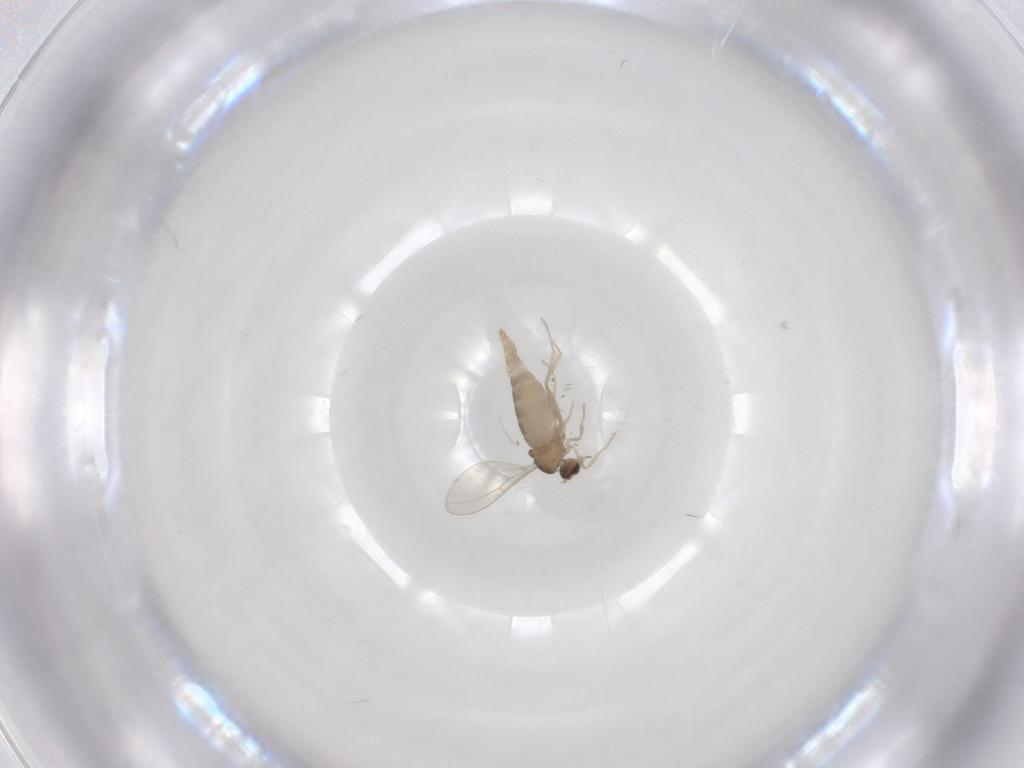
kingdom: Animalia
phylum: Arthropoda
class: Insecta
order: Diptera
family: Cecidomyiidae
